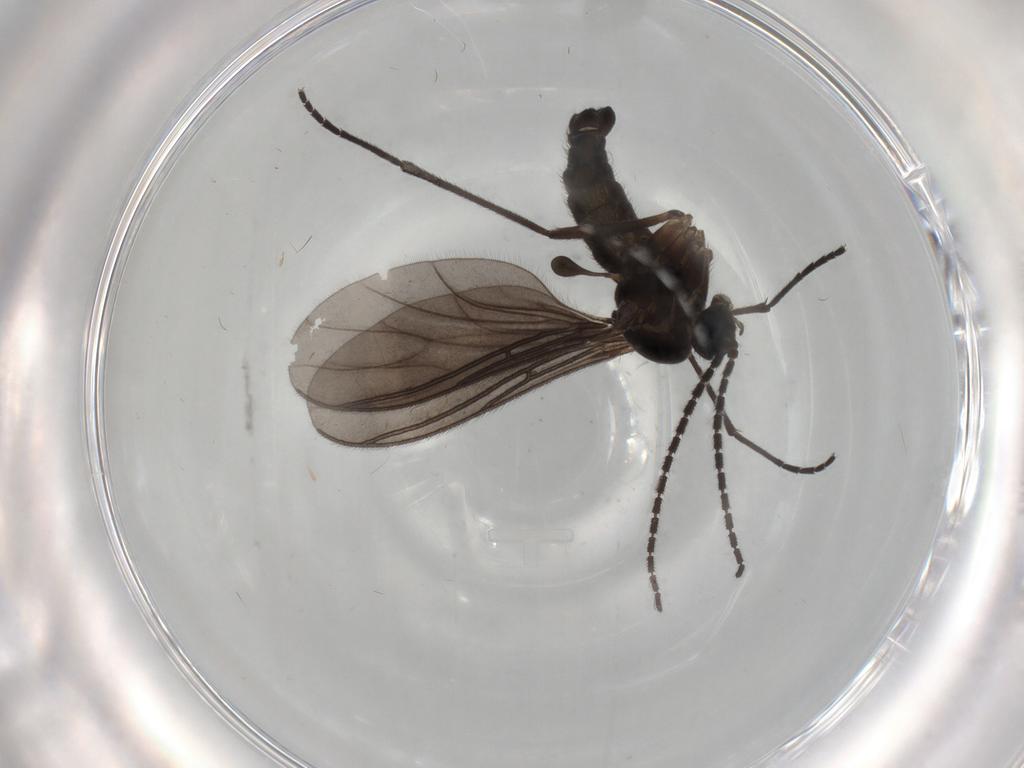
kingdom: Animalia
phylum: Arthropoda
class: Insecta
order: Diptera
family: Sciaridae
